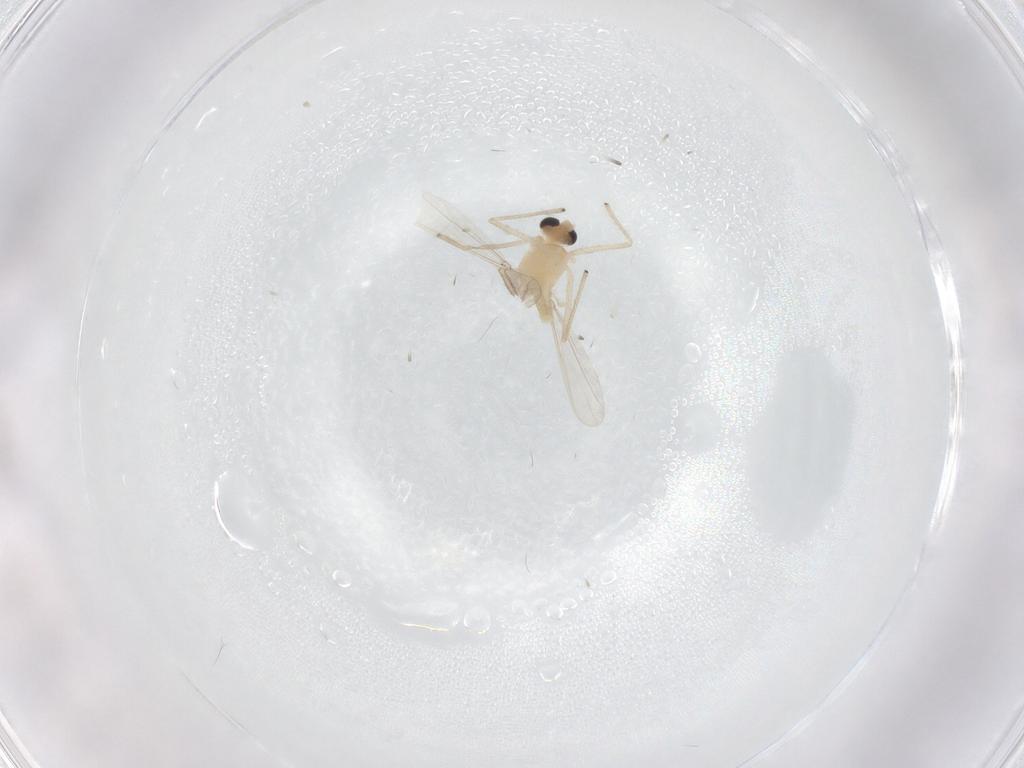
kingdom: Animalia
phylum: Arthropoda
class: Insecta
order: Diptera
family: Chironomidae
